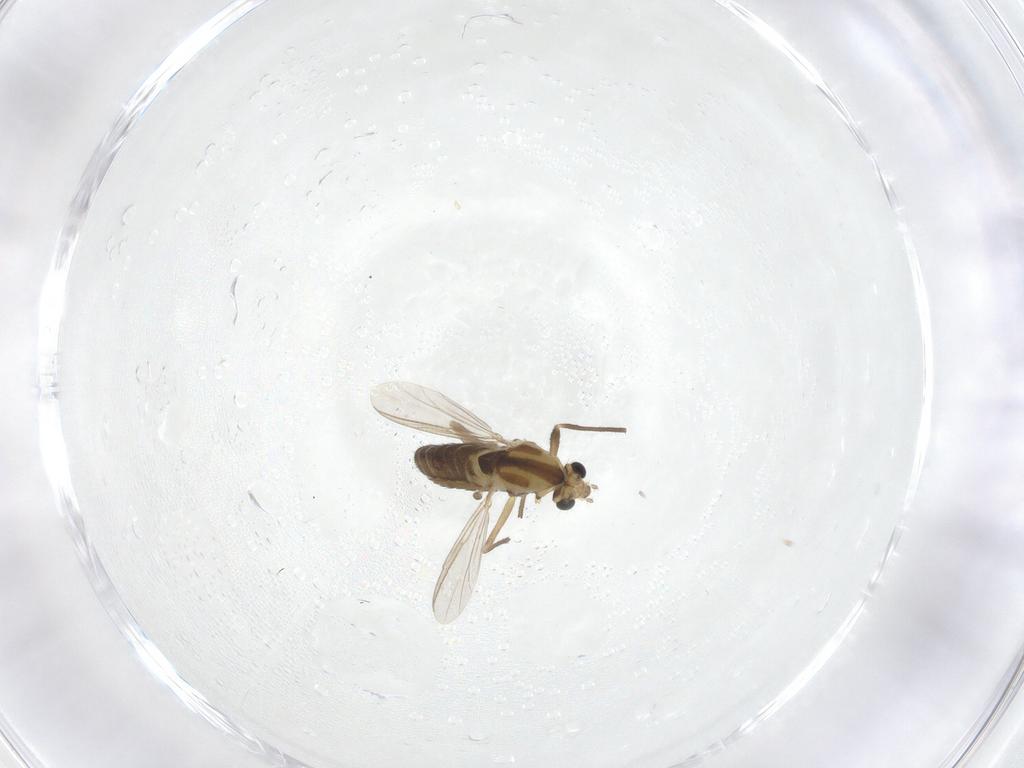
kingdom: Animalia
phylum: Arthropoda
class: Insecta
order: Diptera
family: Chironomidae
